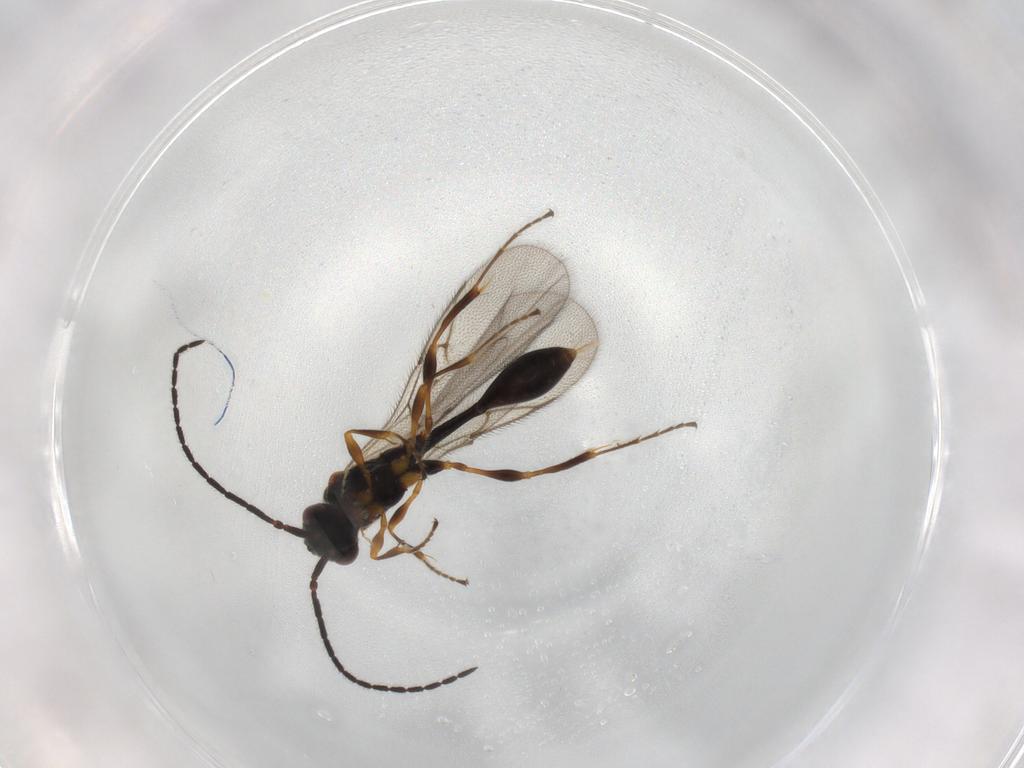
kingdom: Animalia
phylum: Arthropoda
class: Insecta
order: Hymenoptera
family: Diapriidae
